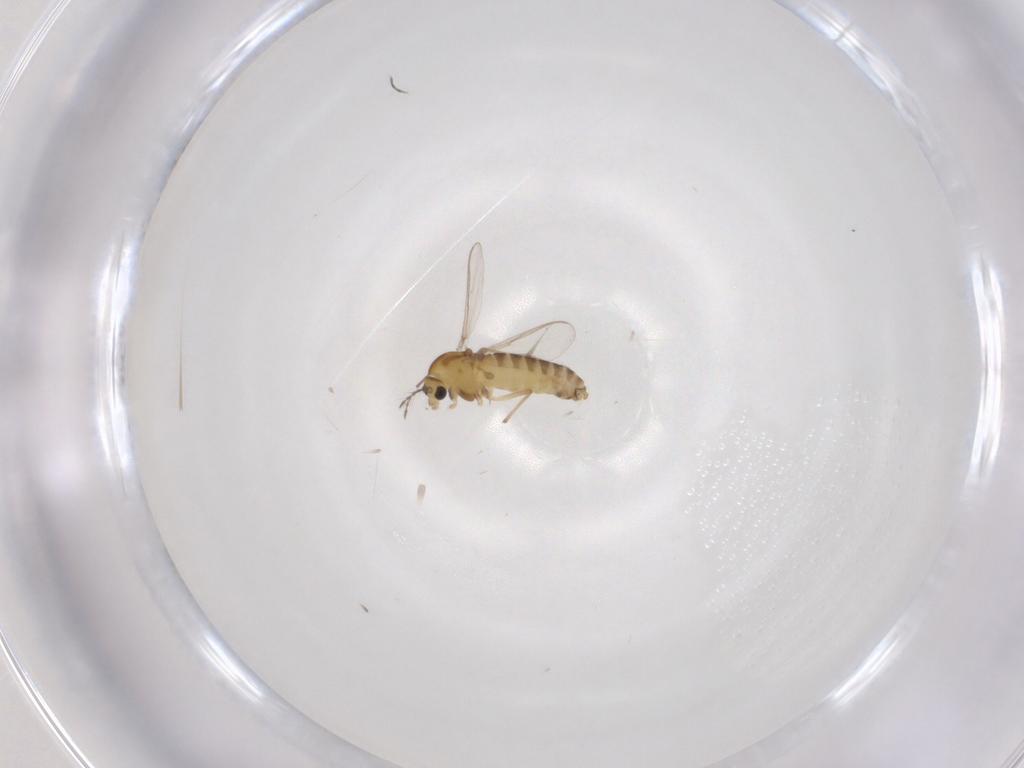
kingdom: Animalia
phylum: Arthropoda
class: Insecta
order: Diptera
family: Chironomidae
